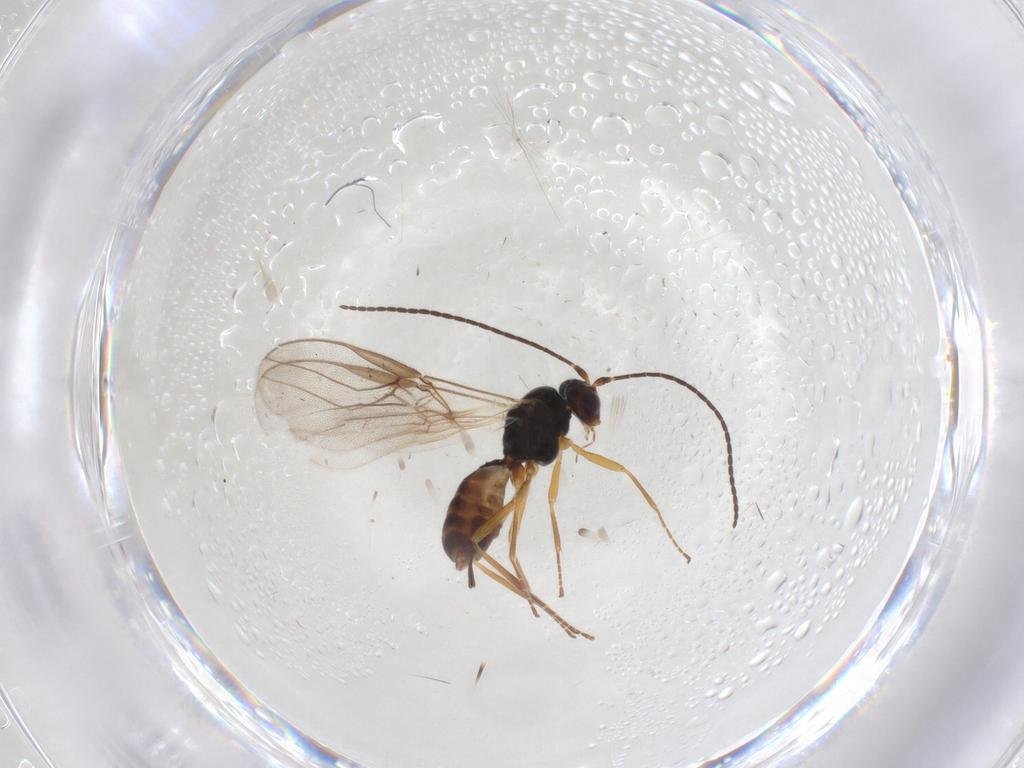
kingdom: Animalia
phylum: Arthropoda
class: Insecta
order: Hymenoptera
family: Braconidae
